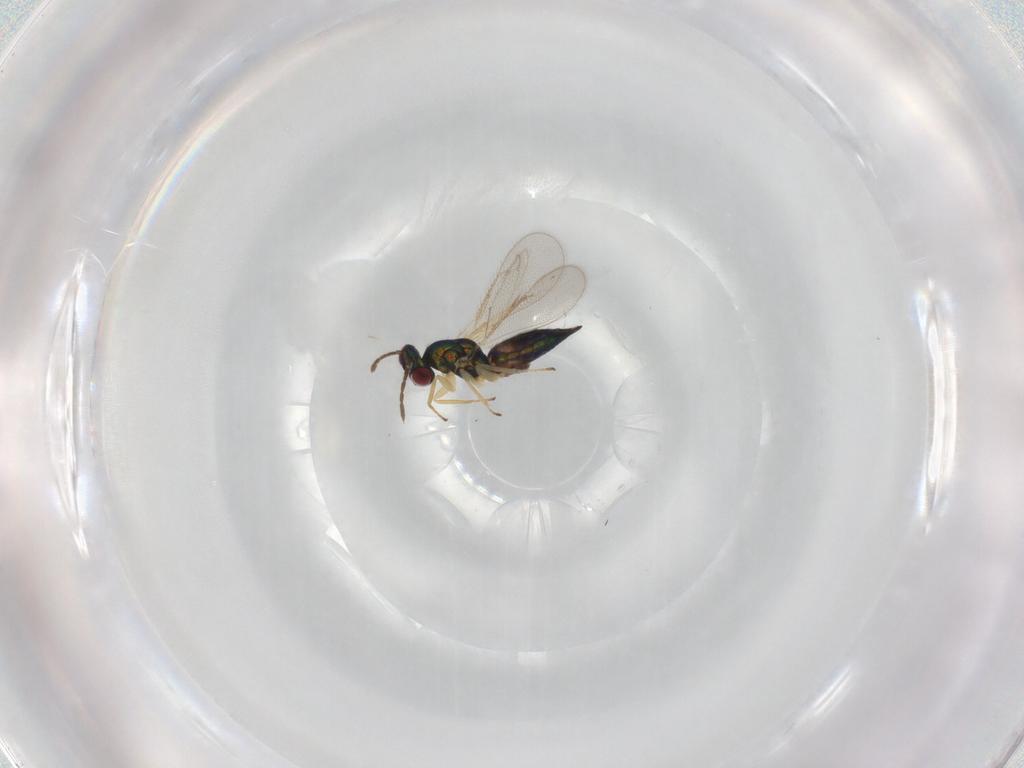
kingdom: Animalia
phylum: Arthropoda
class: Insecta
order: Hymenoptera
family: Eulophidae
